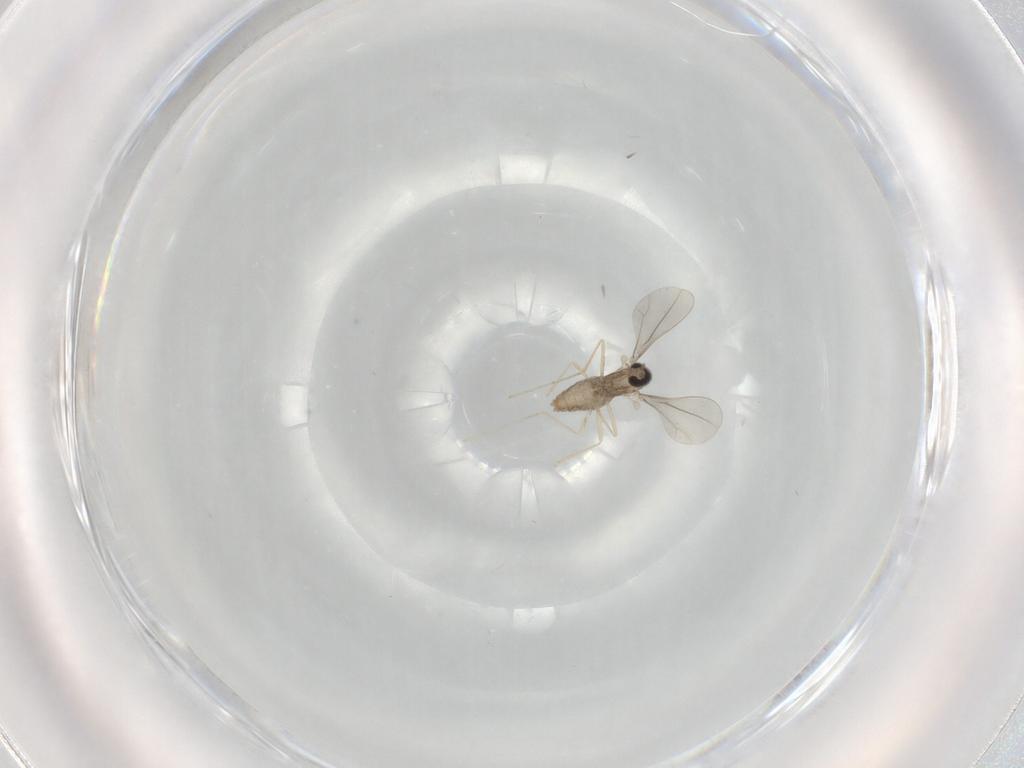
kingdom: Animalia
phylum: Arthropoda
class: Insecta
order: Diptera
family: Cecidomyiidae
